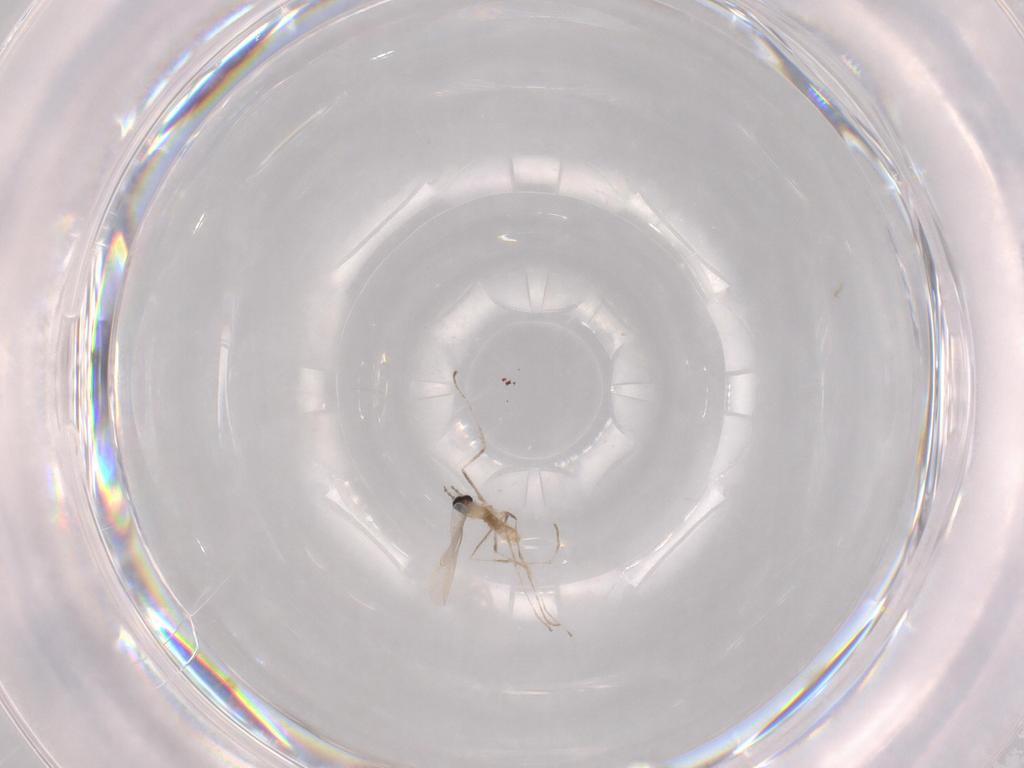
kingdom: Animalia
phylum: Arthropoda
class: Insecta
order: Diptera
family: Cecidomyiidae
